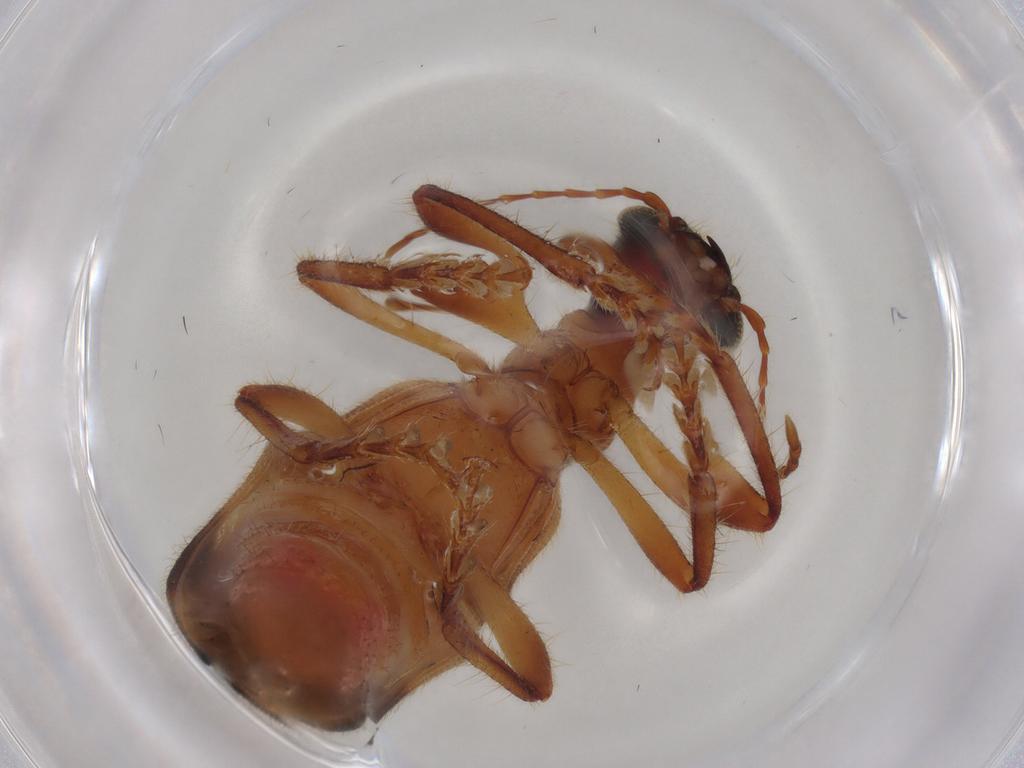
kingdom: Animalia
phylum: Arthropoda
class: Insecta
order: Coleoptera
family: Curculionidae
